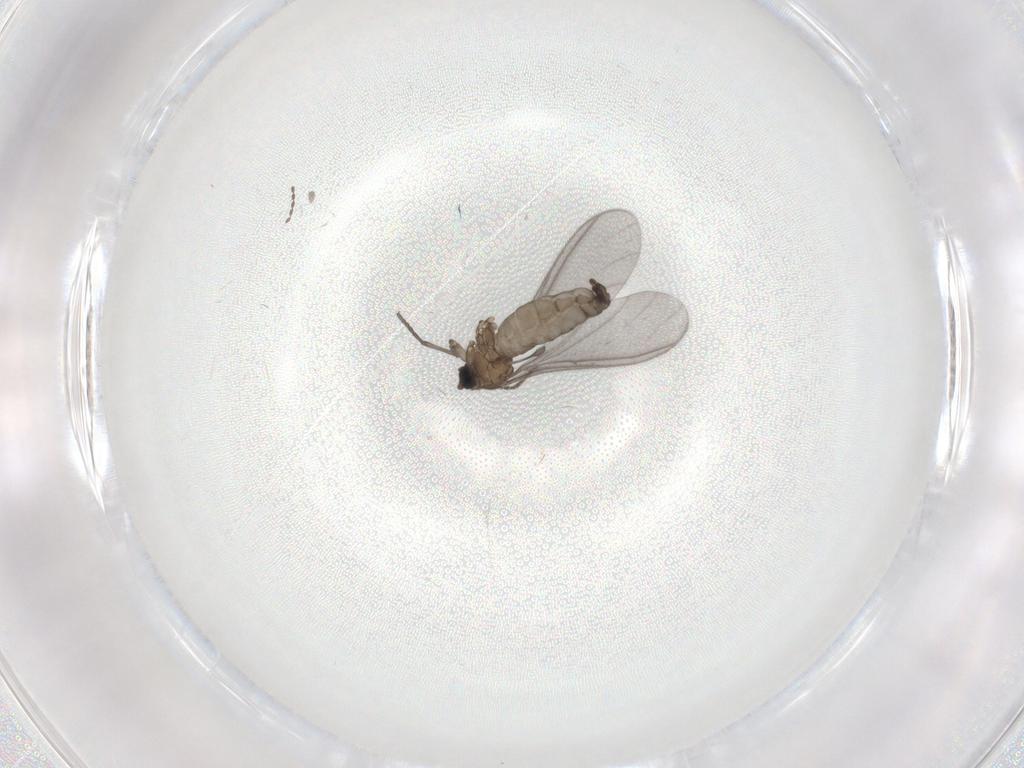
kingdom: Animalia
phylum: Arthropoda
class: Insecta
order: Diptera
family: Sciaridae
